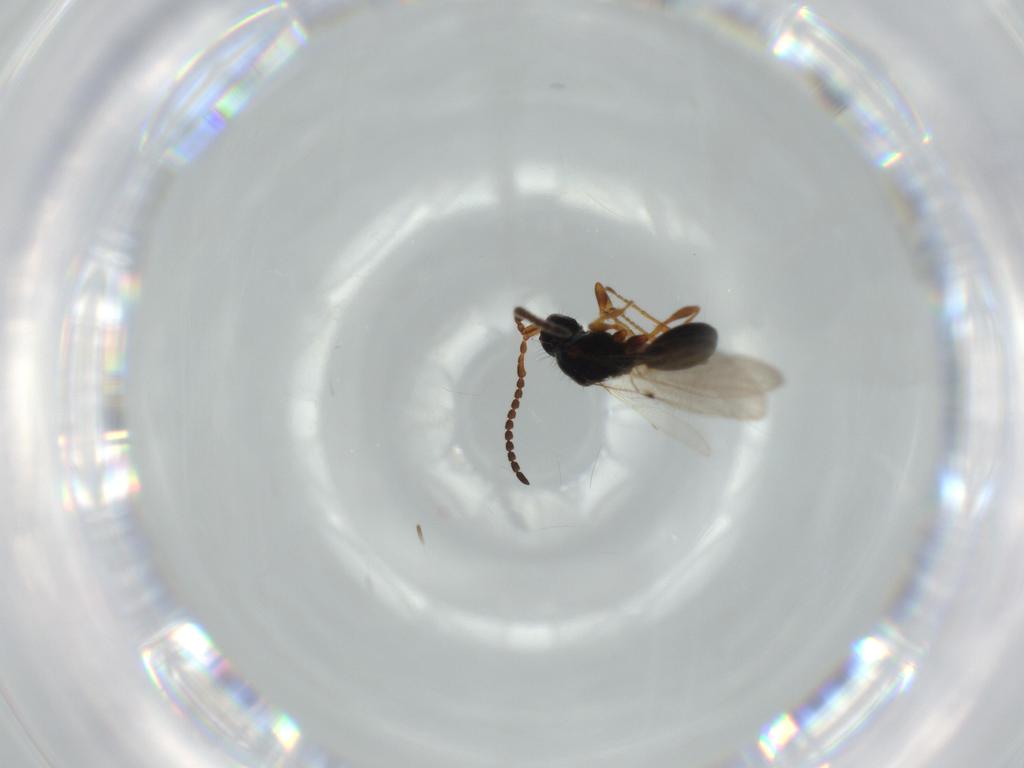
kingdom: Animalia
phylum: Arthropoda
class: Insecta
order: Hymenoptera
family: Diapriidae
